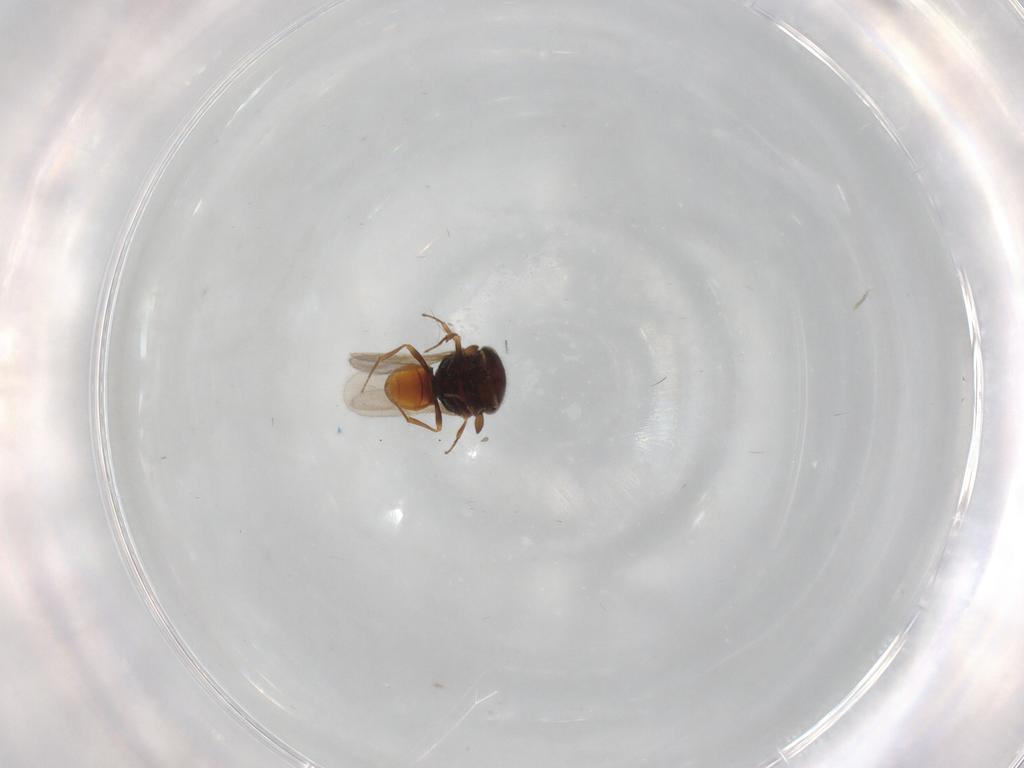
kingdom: Animalia
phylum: Arthropoda
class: Insecta
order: Hymenoptera
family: Scelionidae
